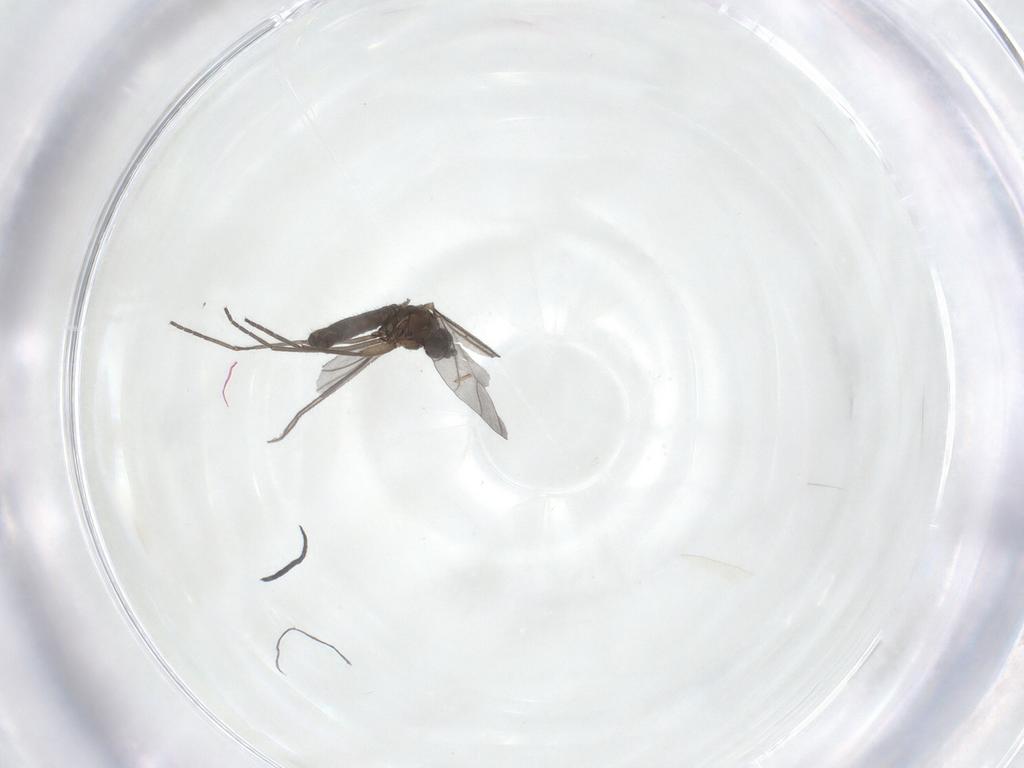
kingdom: Animalia
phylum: Arthropoda
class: Insecta
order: Diptera
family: Sciaridae
